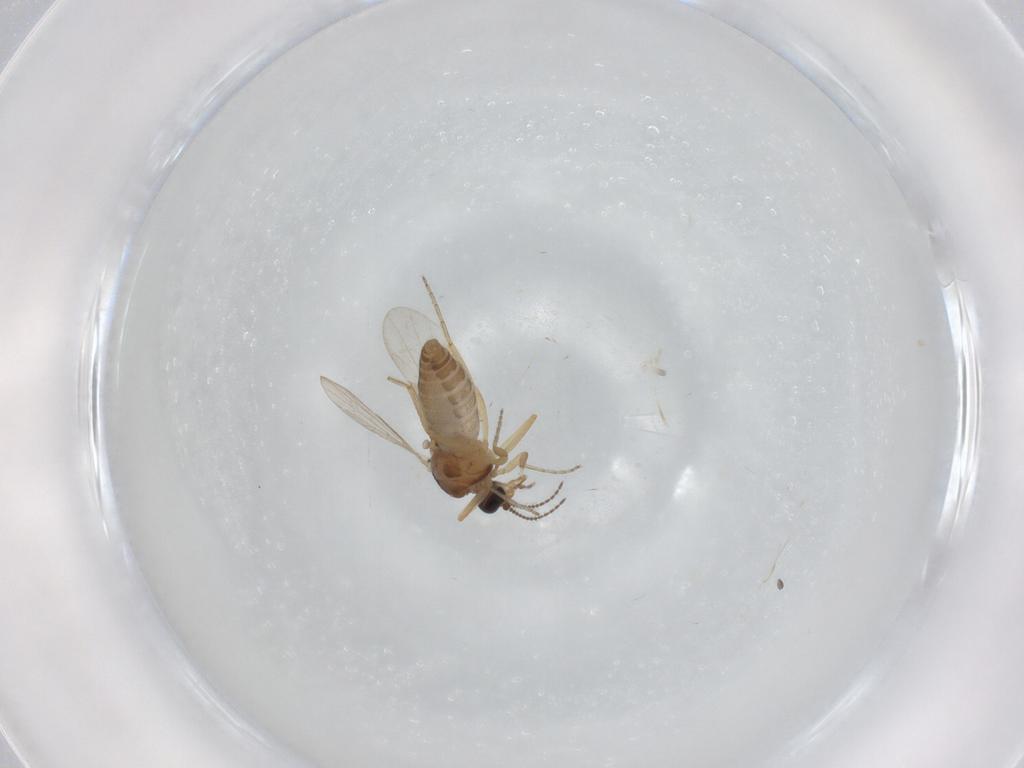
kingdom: Animalia
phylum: Arthropoda
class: Insecta
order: Diptera
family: Ceratopogonidae
